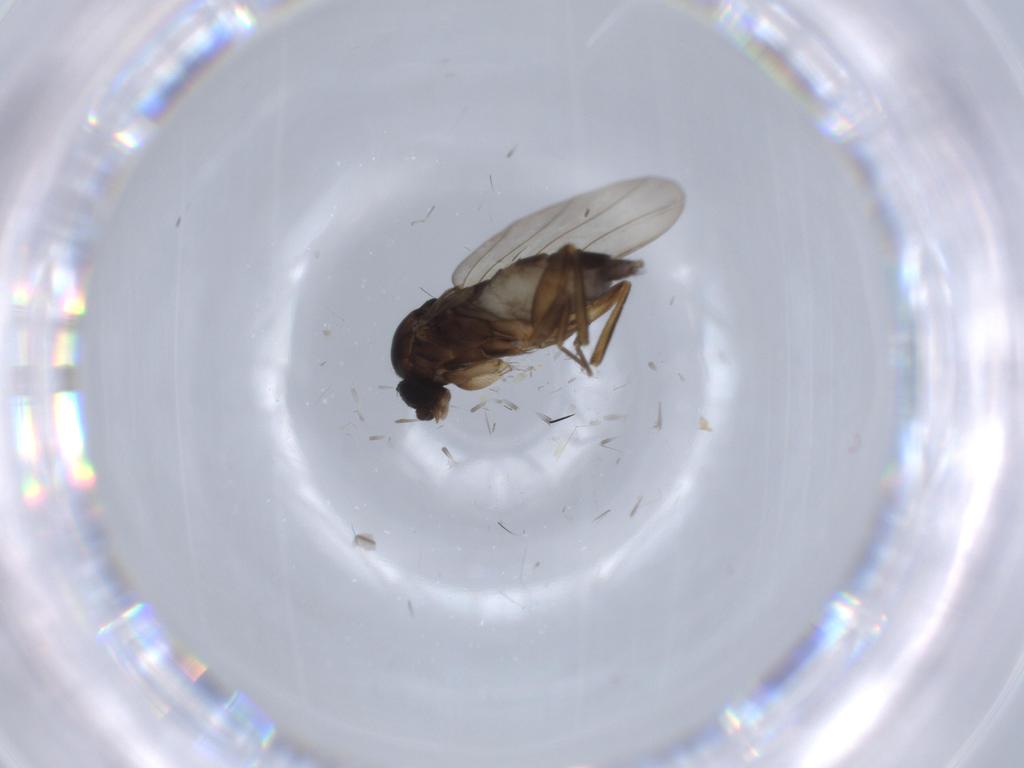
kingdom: Animalia
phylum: Arthropoda
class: Insecta
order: Diptera
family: Phoridae
